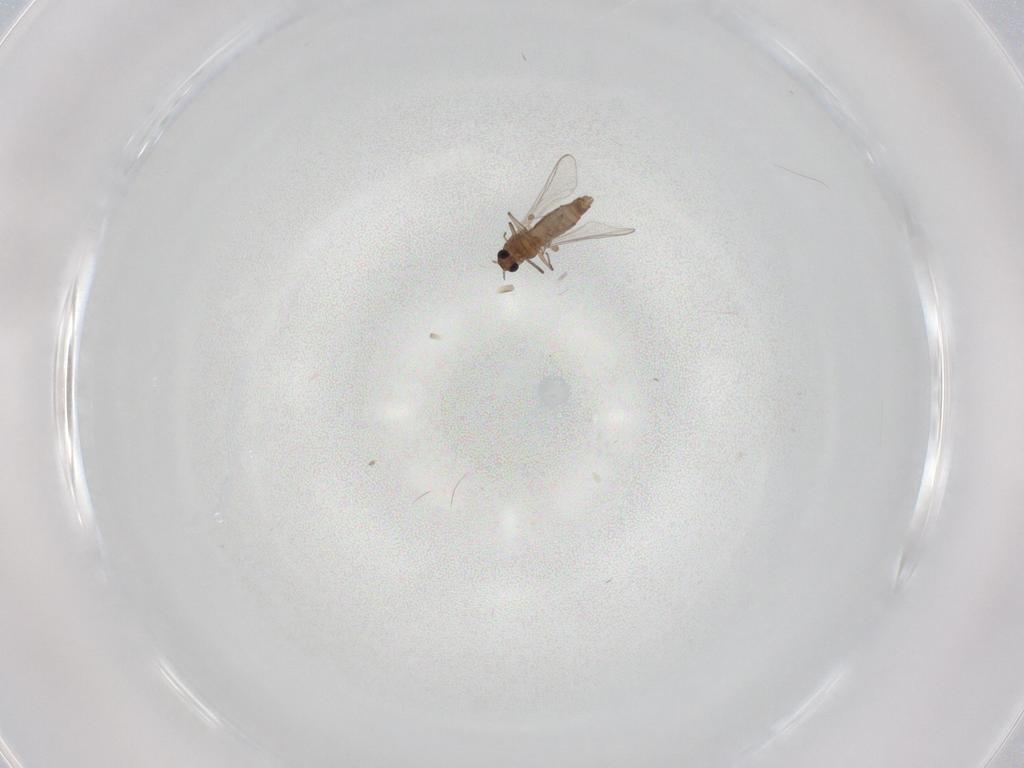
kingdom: Animalia
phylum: Arthropoda
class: Insecta
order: Diptera
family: Chironomidae
